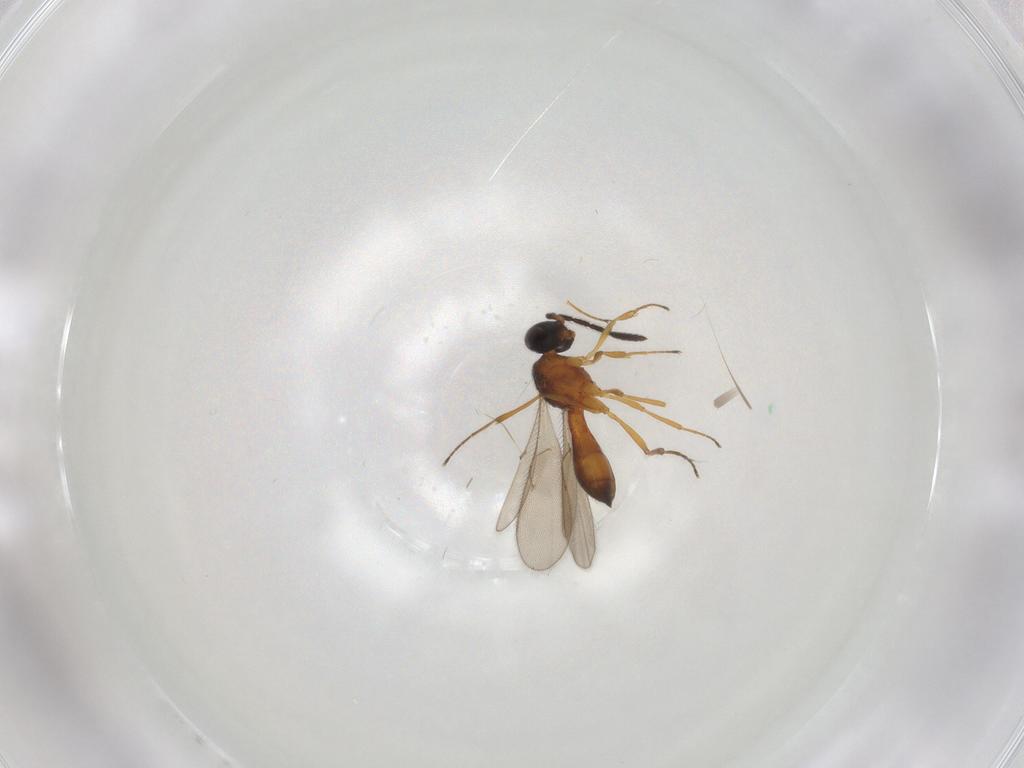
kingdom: Animalia
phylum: Arthropoda
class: Insecta
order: Hymenoptera
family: Scelionidae
